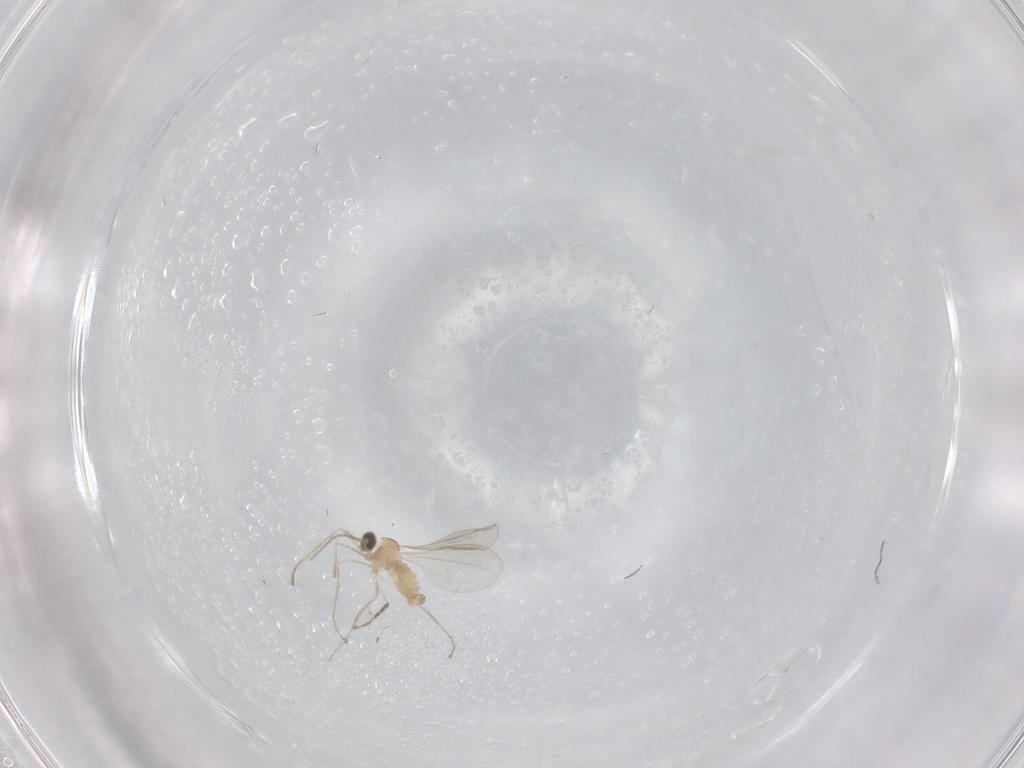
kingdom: Animalia
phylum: Arthropoda
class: Insecta
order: Diptera
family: Cecidomyiidae
